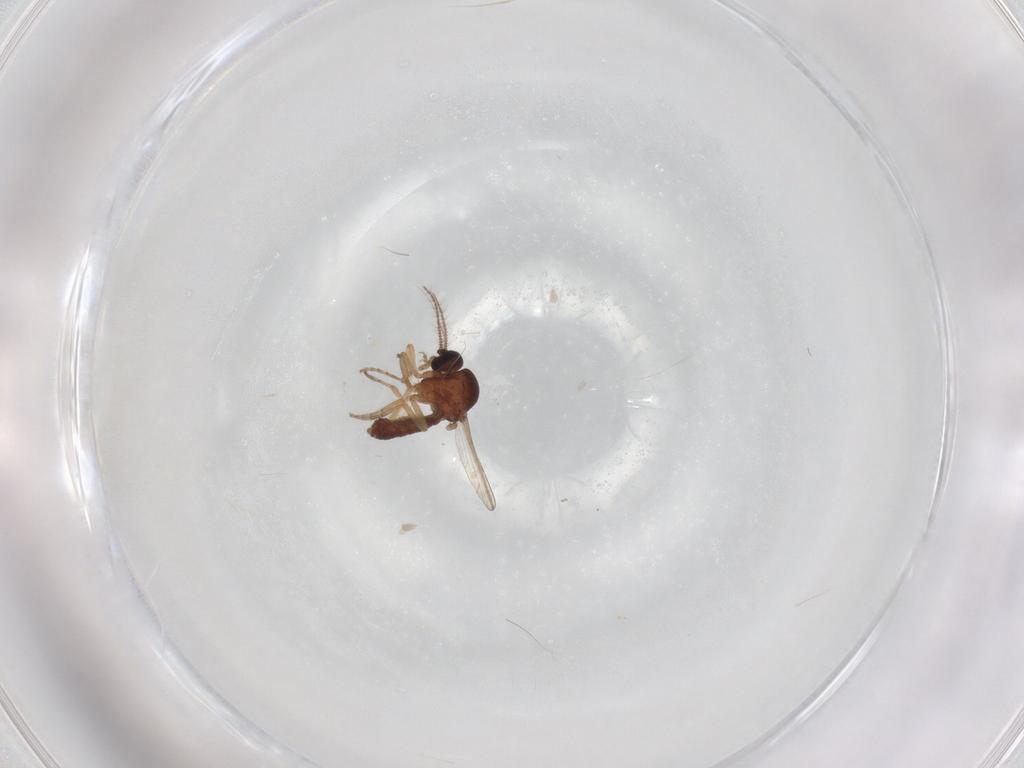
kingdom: Animalia
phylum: Arthropoda
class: Insecta
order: Diptera
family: Ceratopogonidae
